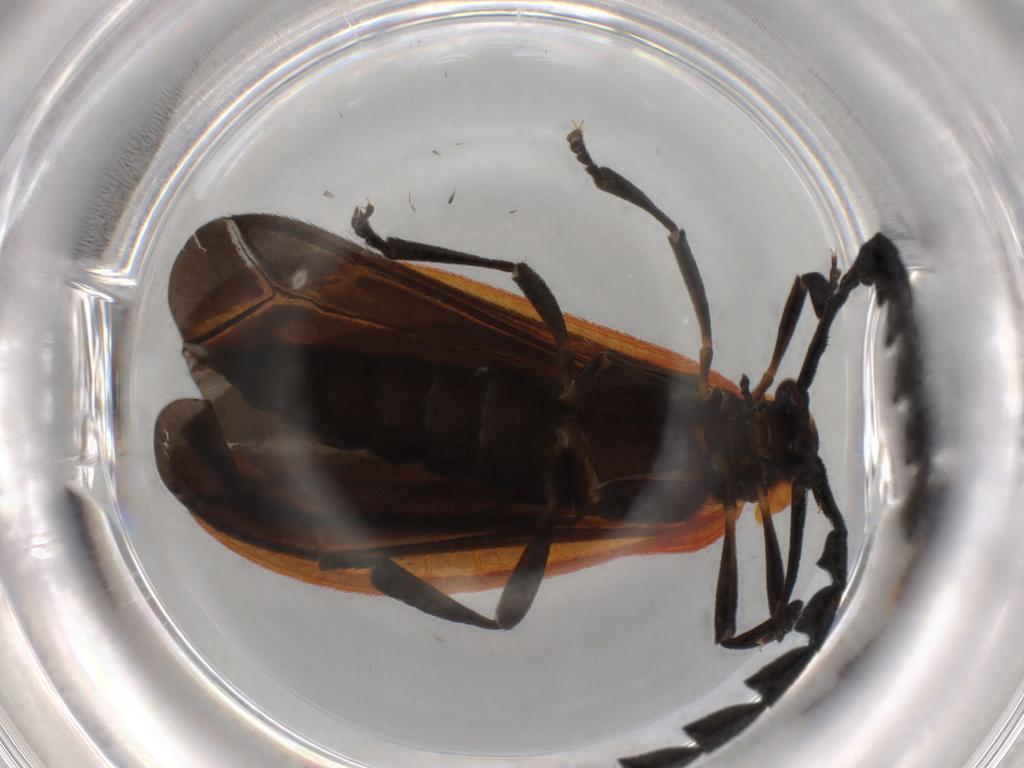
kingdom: Animalia
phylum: Arthropoda
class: Insecta
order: Coleoptera
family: Lycidae
